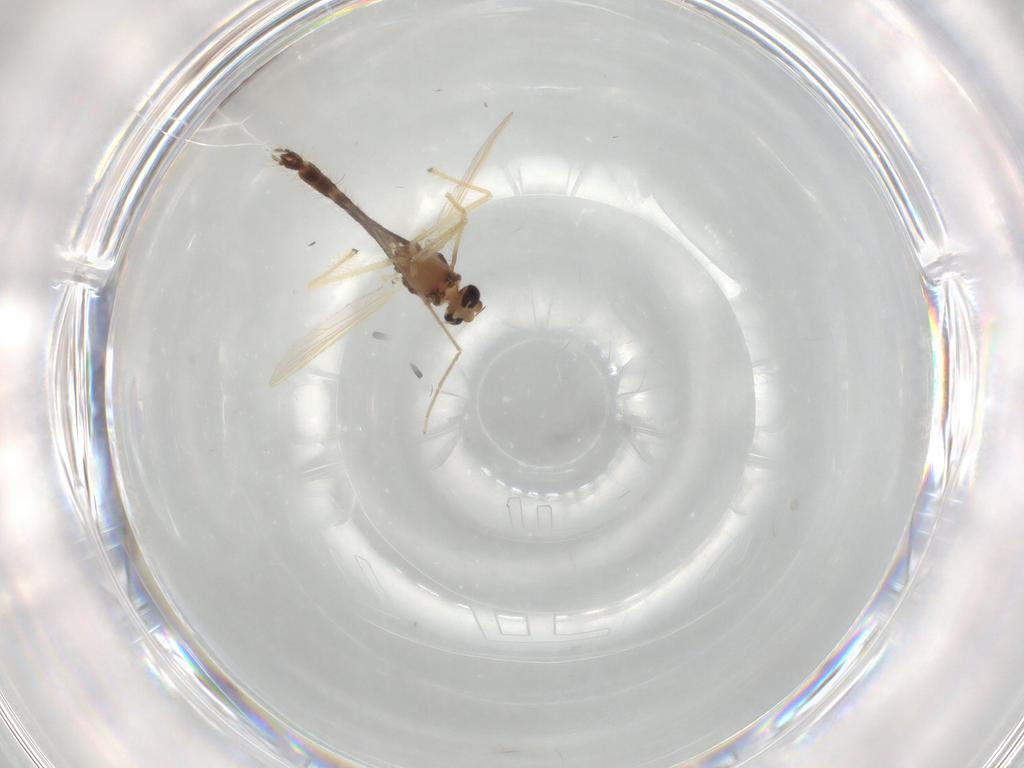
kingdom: Animalia
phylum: Arthropoda
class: Insecta
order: Diptera
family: Chironomidae
